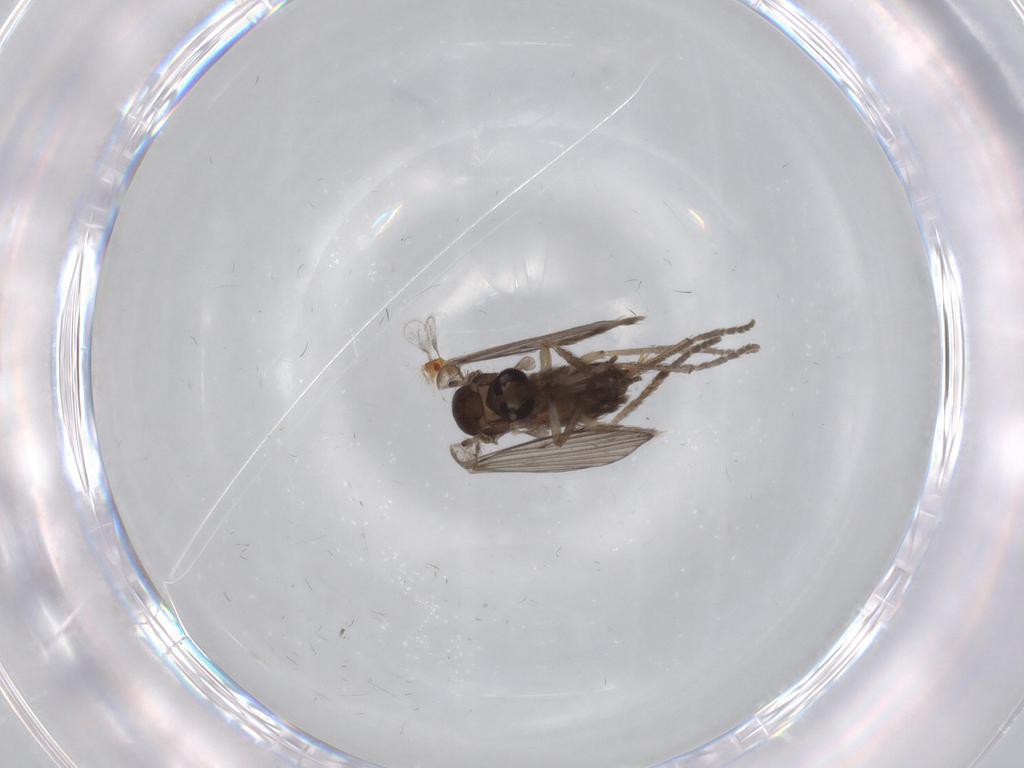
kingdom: Animalia
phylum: Arthropoda
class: Insecta
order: Diptera
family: Psychodidae
